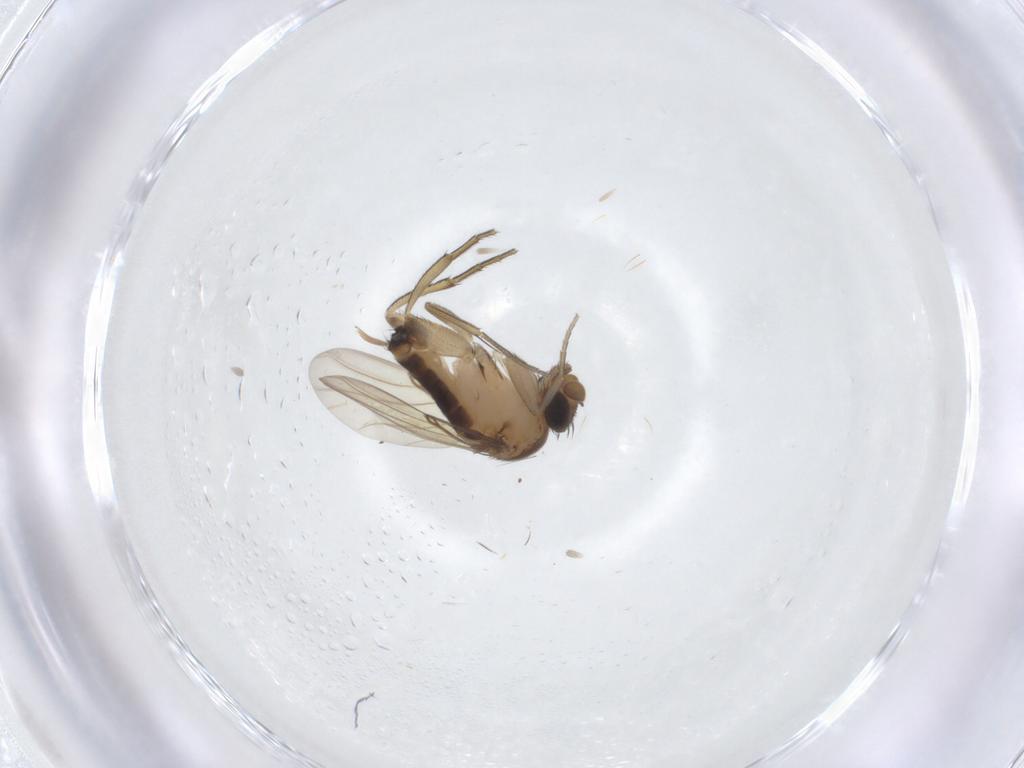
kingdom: Animalia
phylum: Arthropoda
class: Insecta
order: Diptera
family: Phoridae
